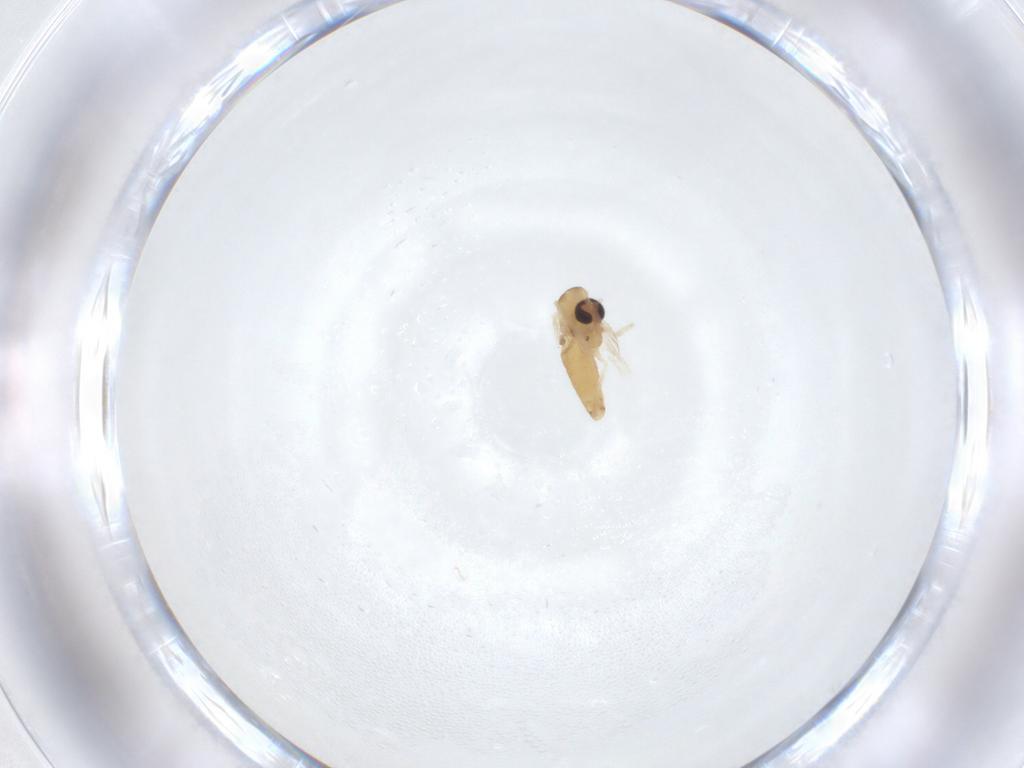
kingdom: Animalia
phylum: Arthropoda
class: Insecta
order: Diptera
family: Chironomidae
